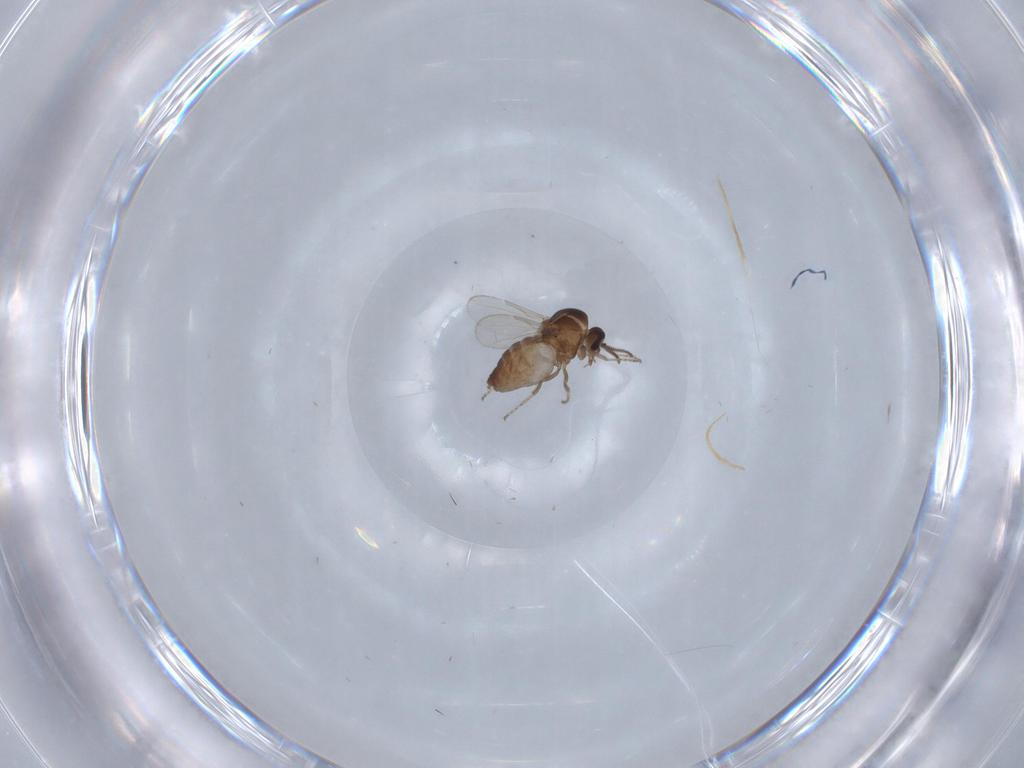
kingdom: Animalia
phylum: Arthropoda
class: Insecta
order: Diptera
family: Ceratopogonidae
